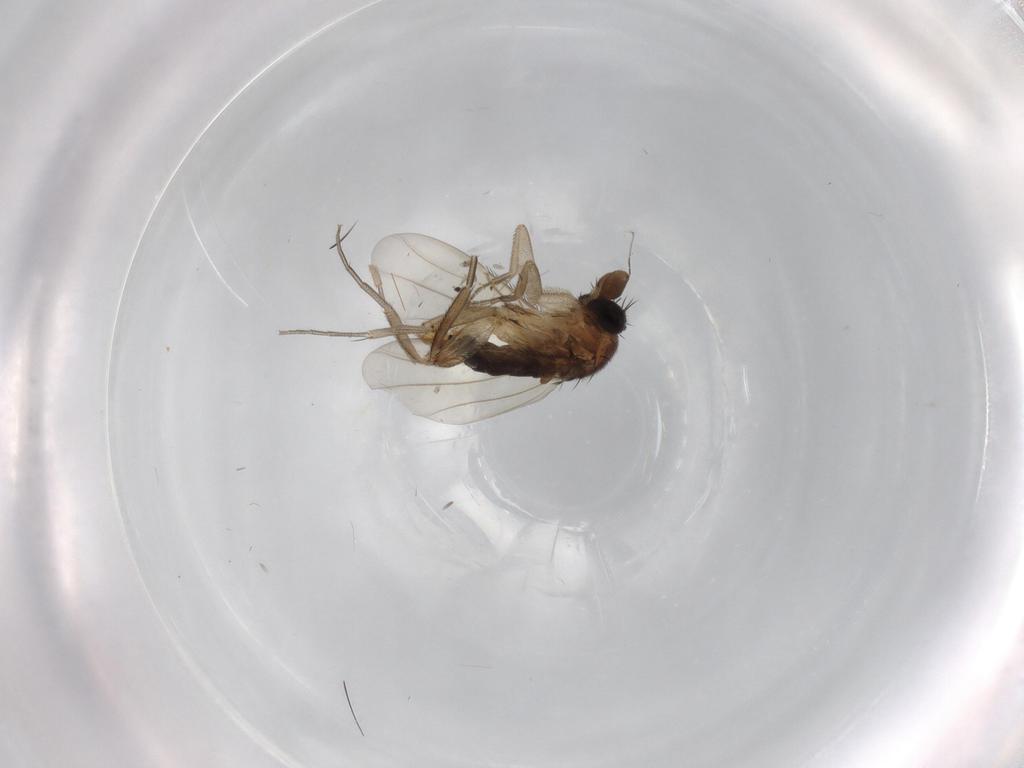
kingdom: Animalia
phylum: Arthropoda
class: Insecta
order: Diptera
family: Phoridae
